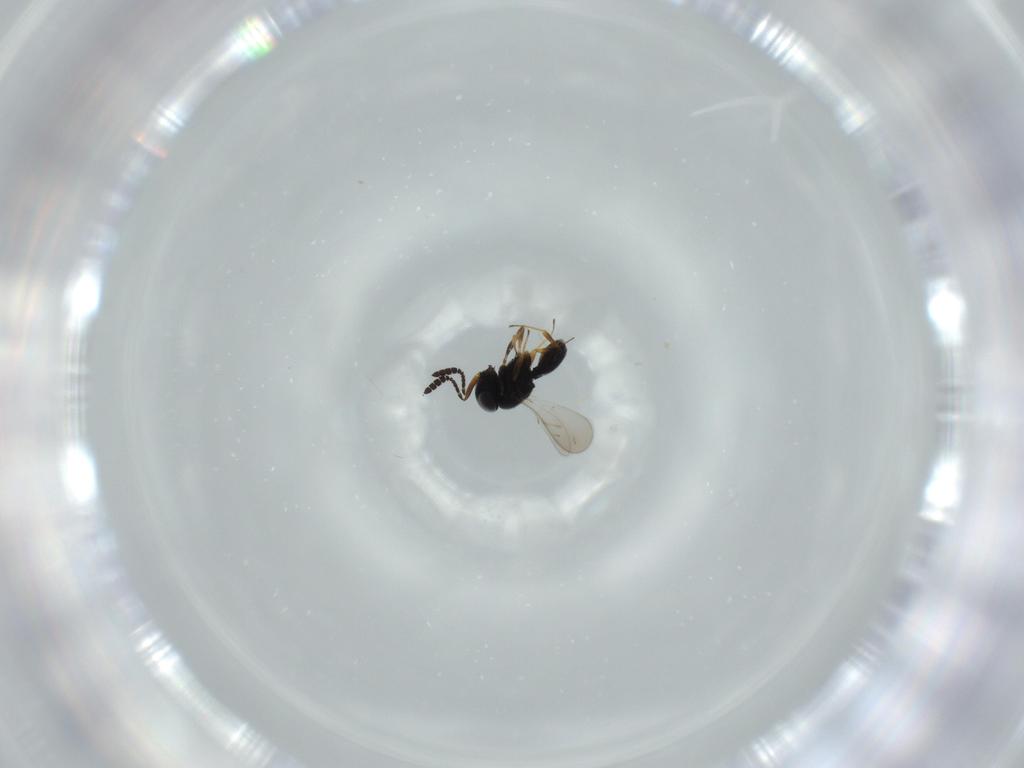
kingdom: Animalia
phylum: Arthropoda
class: Insecta
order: Hymenoptera
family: Scelionidae
